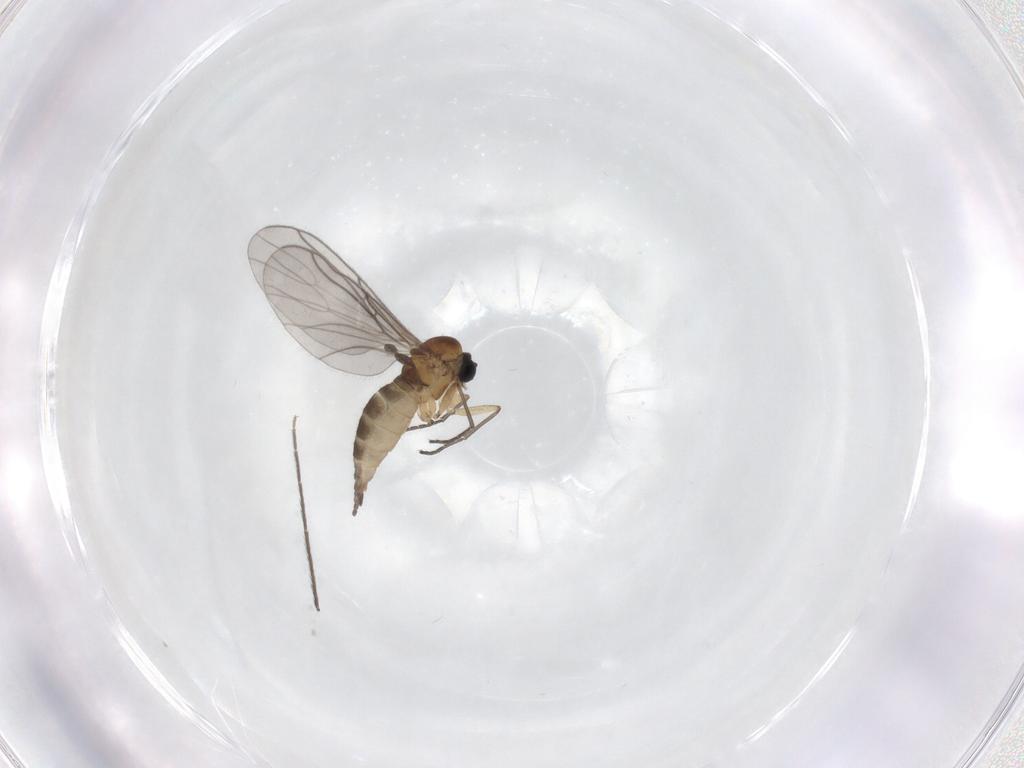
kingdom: Animalia
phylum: Arthropoda
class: Insecta
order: Diptera
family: Sciaridae
